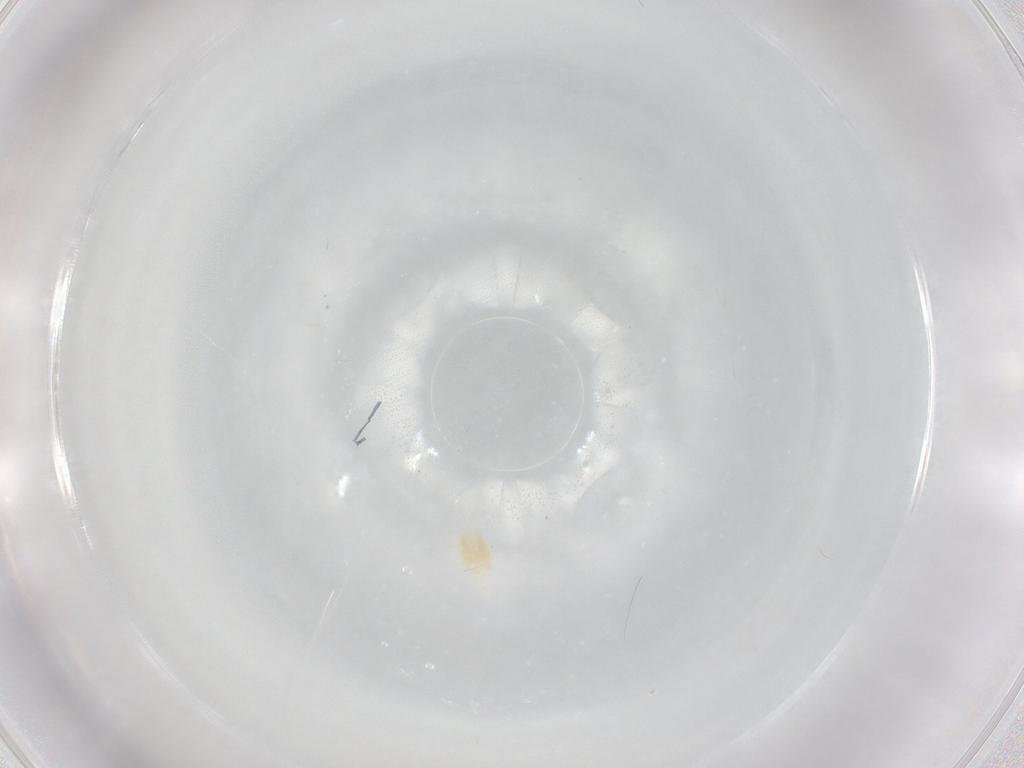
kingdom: Animalia
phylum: Arthropoda
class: Arachnida
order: Trombidiformes
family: Eupodidae
